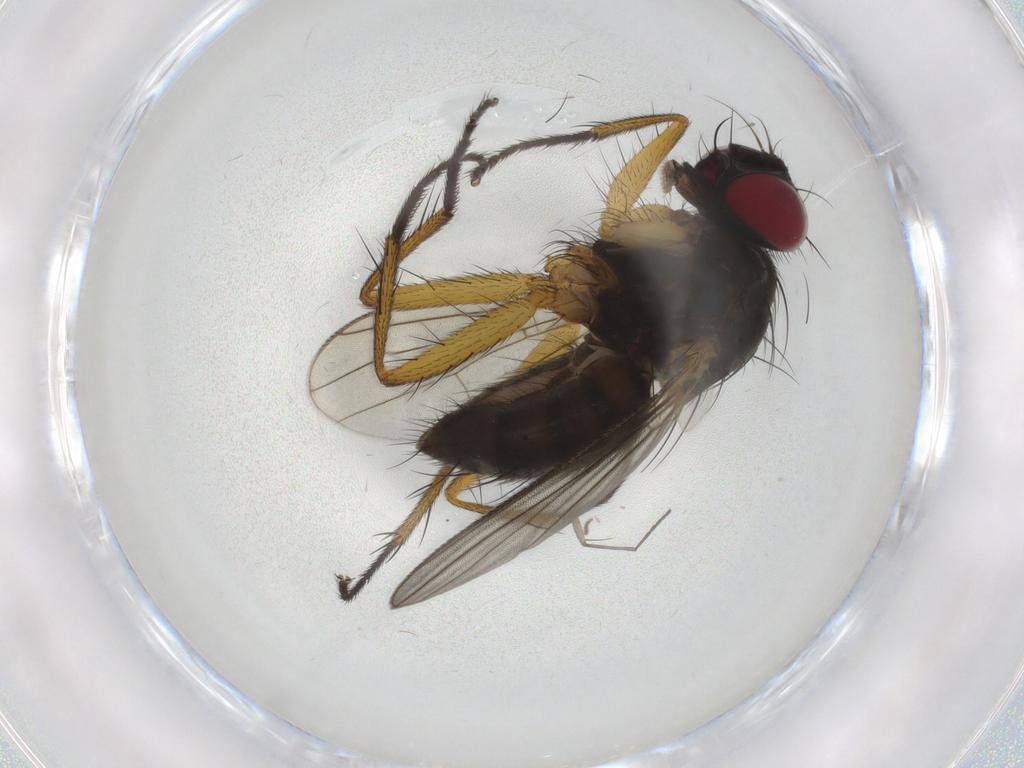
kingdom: Animalia
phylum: Arthropoda
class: Insecta
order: Diptera
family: Muscidae
